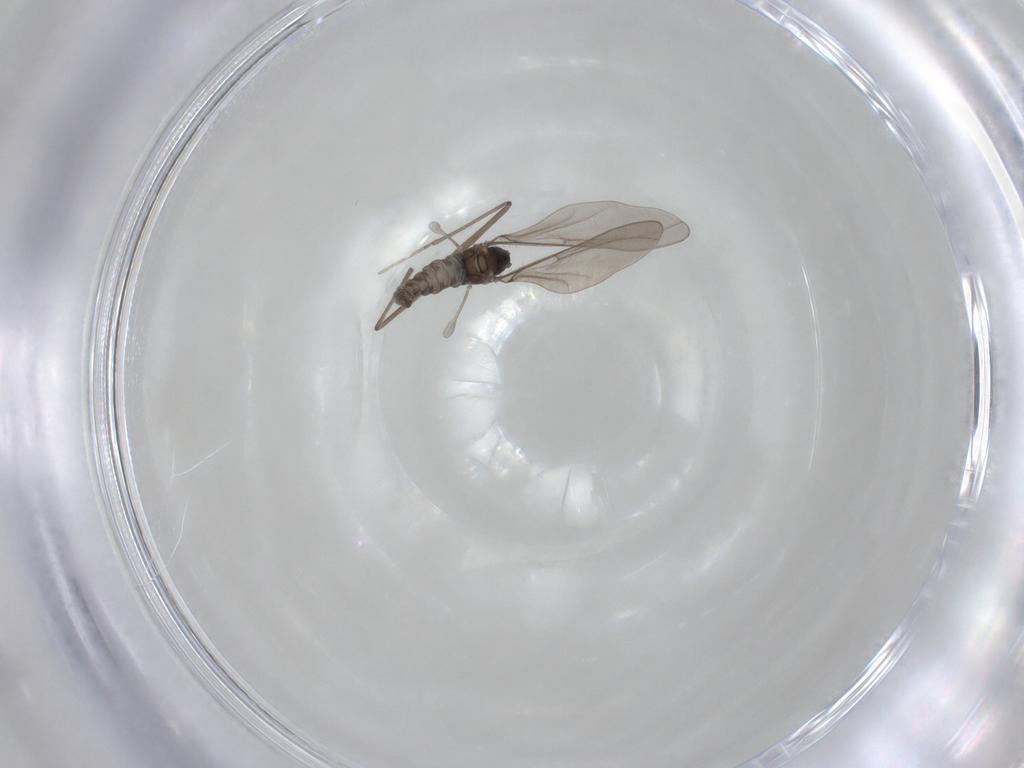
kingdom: Animalia
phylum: Arthropoda
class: Insecta
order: Diptera
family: Cecidomyiidae
